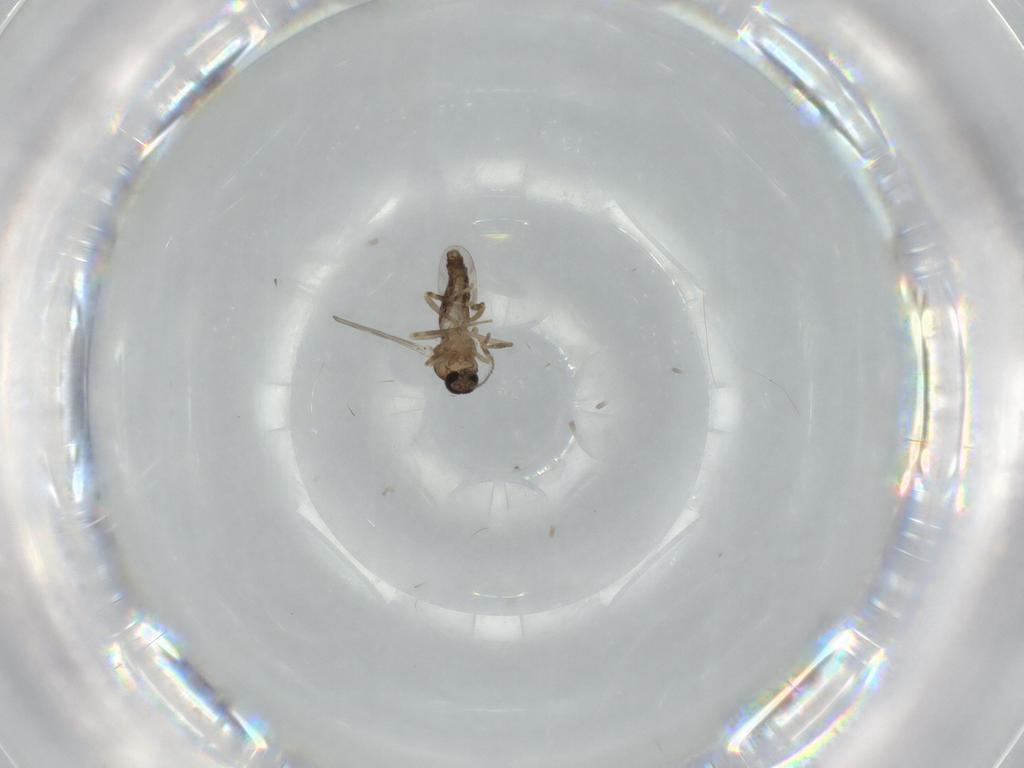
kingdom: Animalia
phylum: Arthropoda
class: Insecta
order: Diptera
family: Ceratopogonidae
